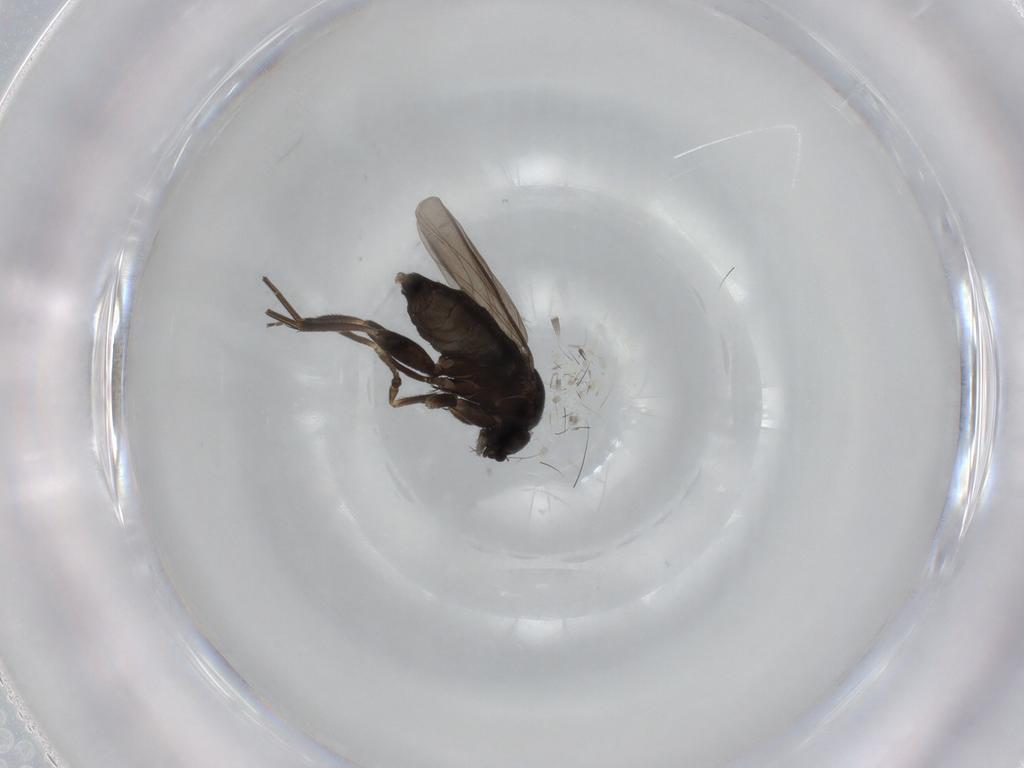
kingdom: Animalia
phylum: Arthropoda
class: Insecta
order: Diptera
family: Phoridae
